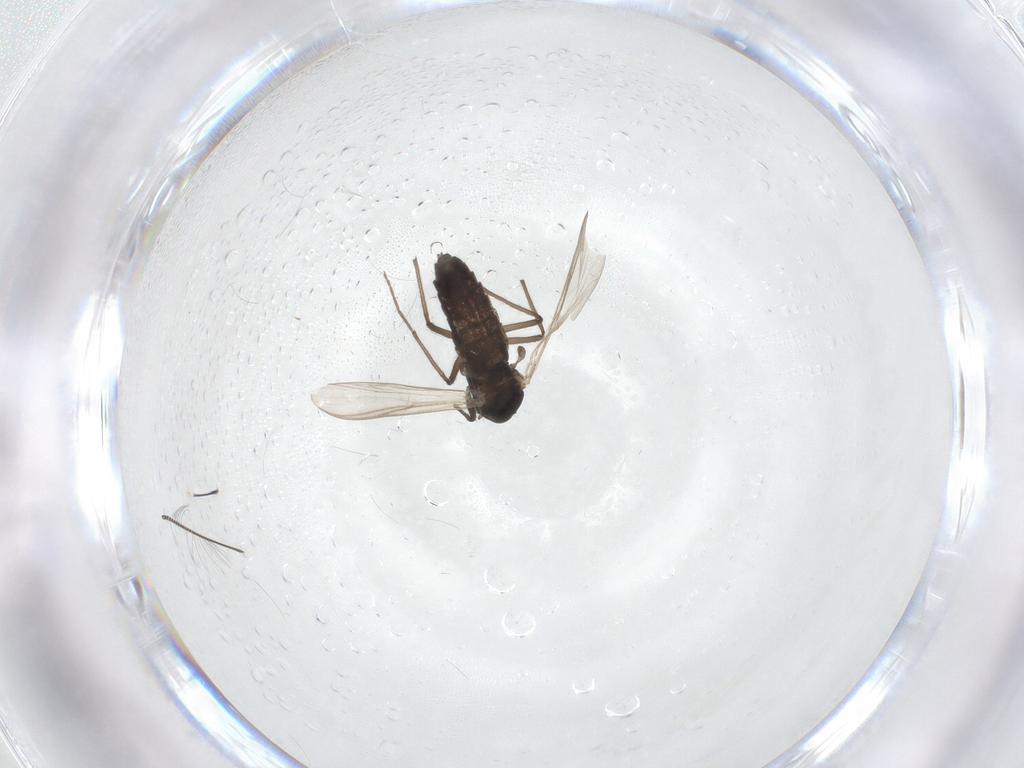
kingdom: Animalia
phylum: Arthropoda
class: Insecta
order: Diptera
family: Chironomidae
